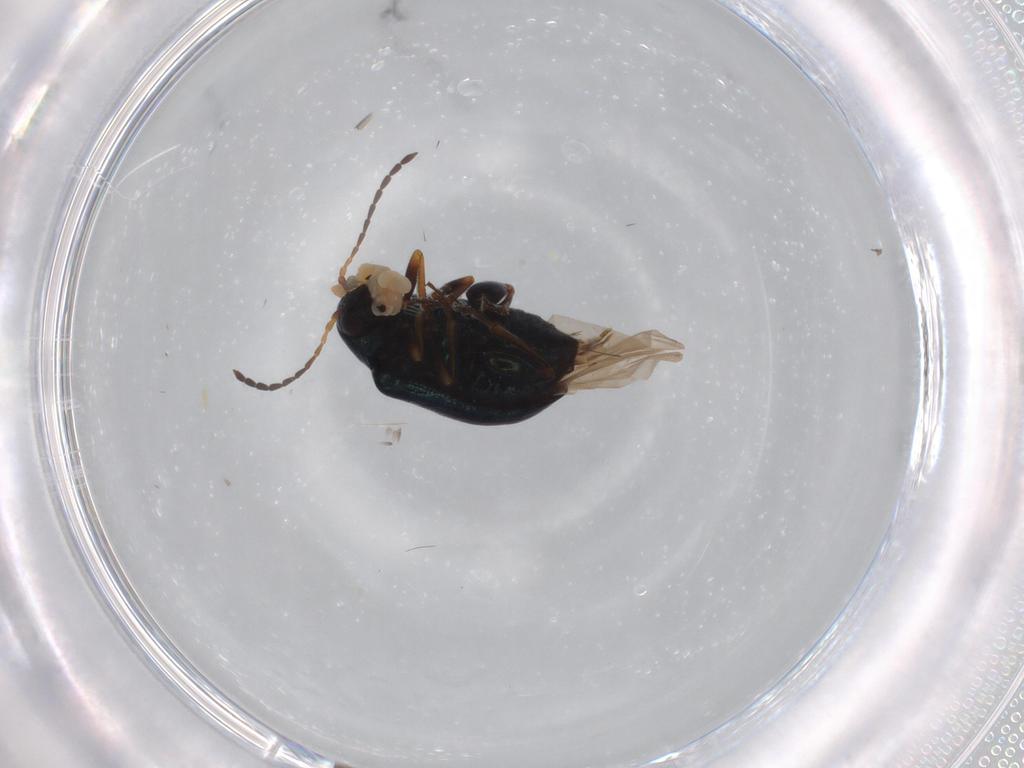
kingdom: Animalia
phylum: Arthropoda
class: Insecta
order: Coleoptera
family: Chrysomelidae
